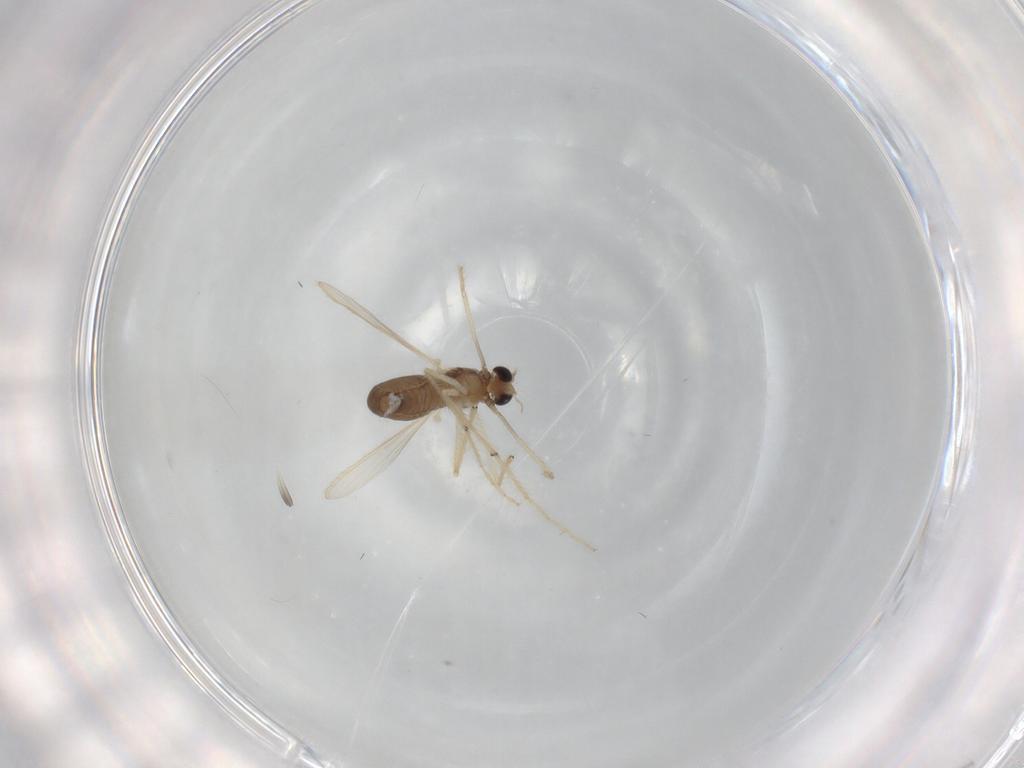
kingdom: Animalia
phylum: Arthropoda
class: Insecta
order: Diptera
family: Chironomidae
